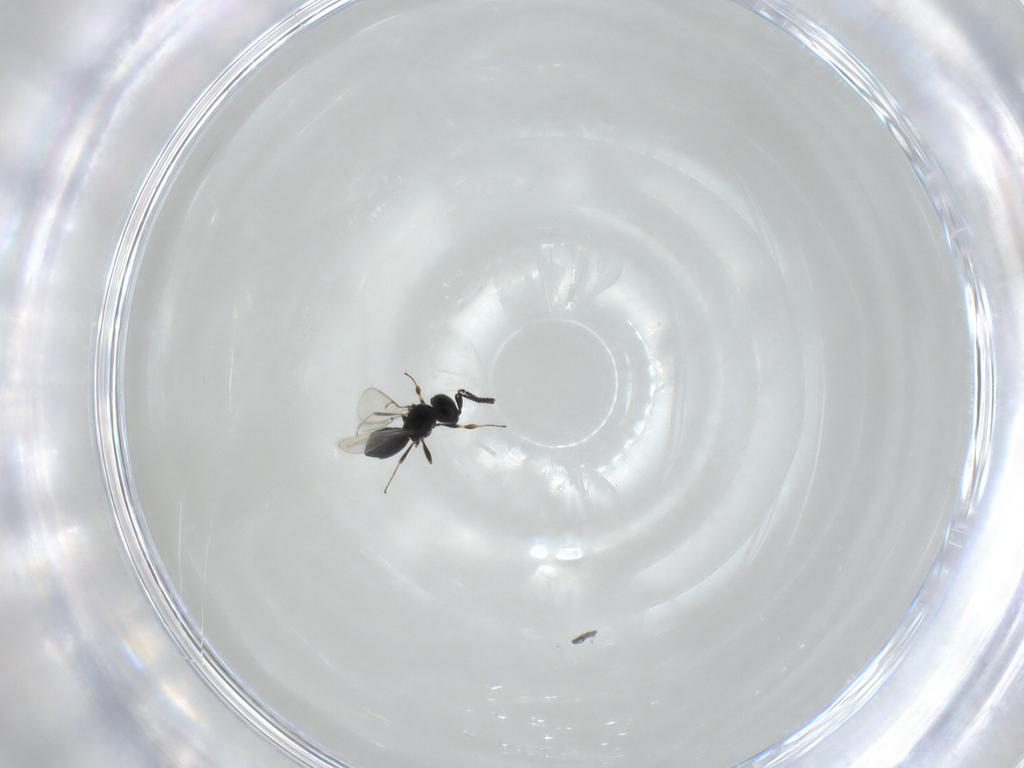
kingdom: Animalia
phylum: Arthropoda
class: Insecta
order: Hymenoptera
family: Scelionidae
